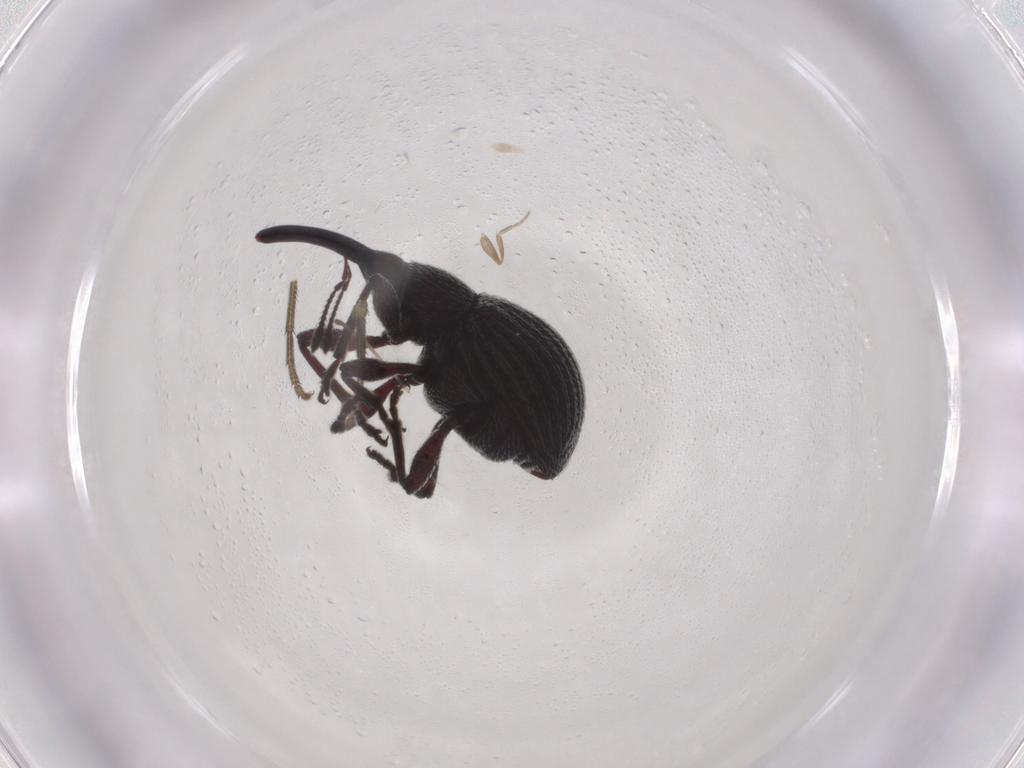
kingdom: Animalia
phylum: Arthropoda
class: Insecta
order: Coleoptera
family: Brentidae
